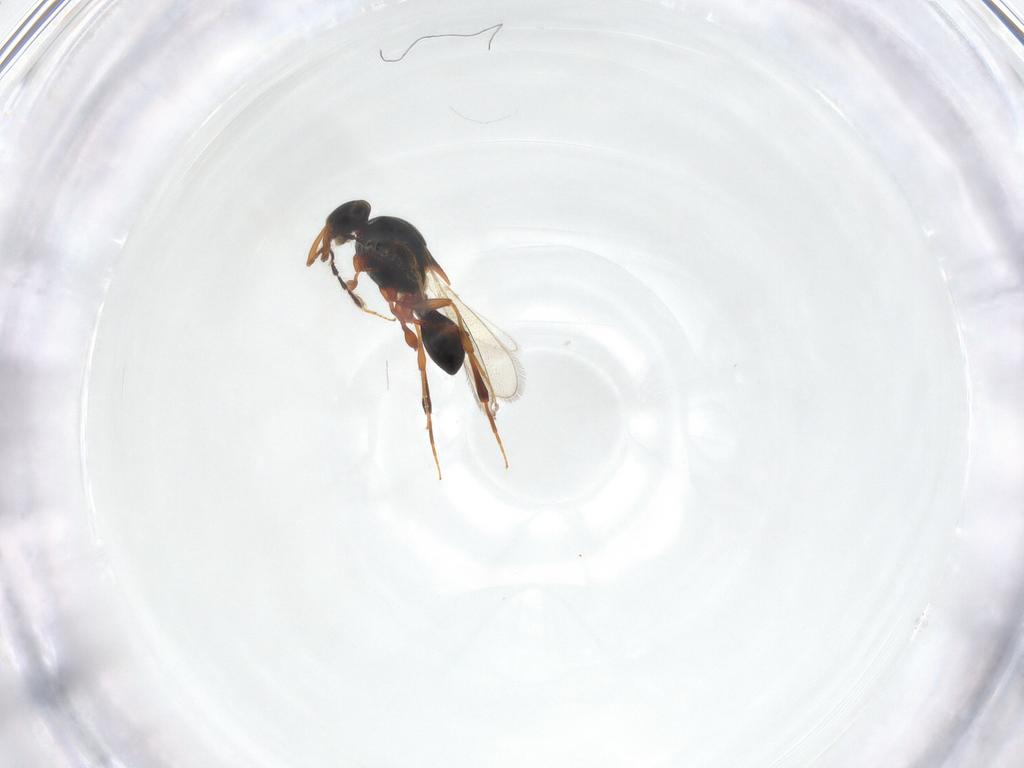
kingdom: Animalia
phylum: Arthropoda
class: Insecta
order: Hymenoptera
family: Platygastridae
